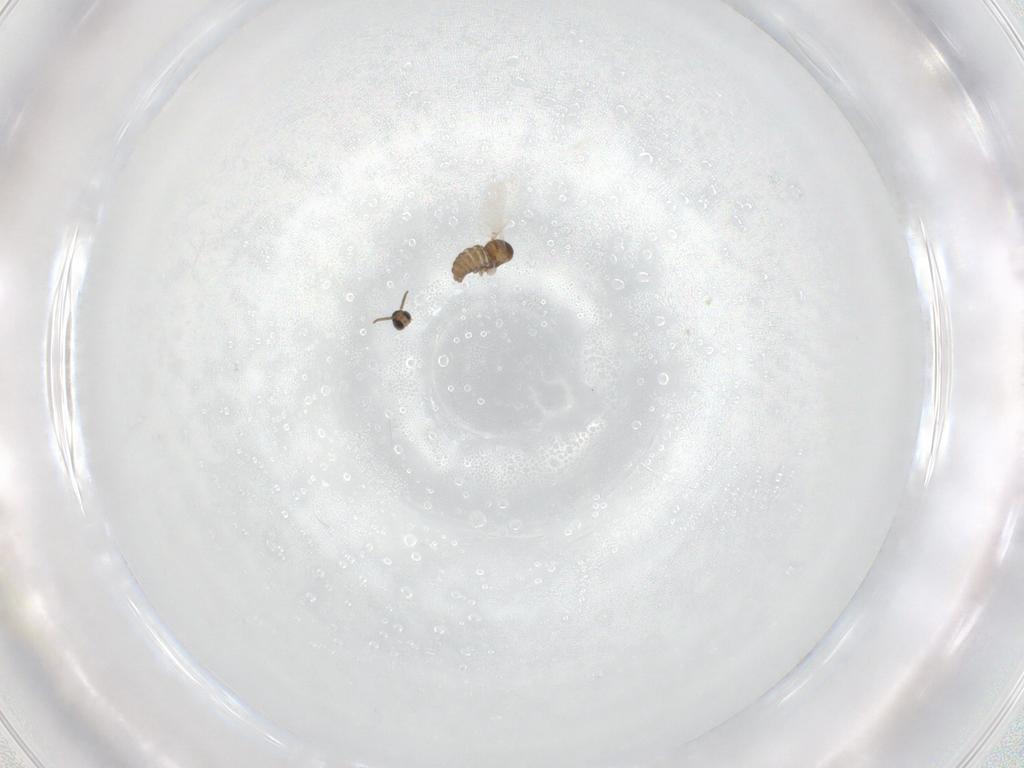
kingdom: Animalia
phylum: Arthropoda
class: Insecta
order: Diptera
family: Cecidomyiidae
